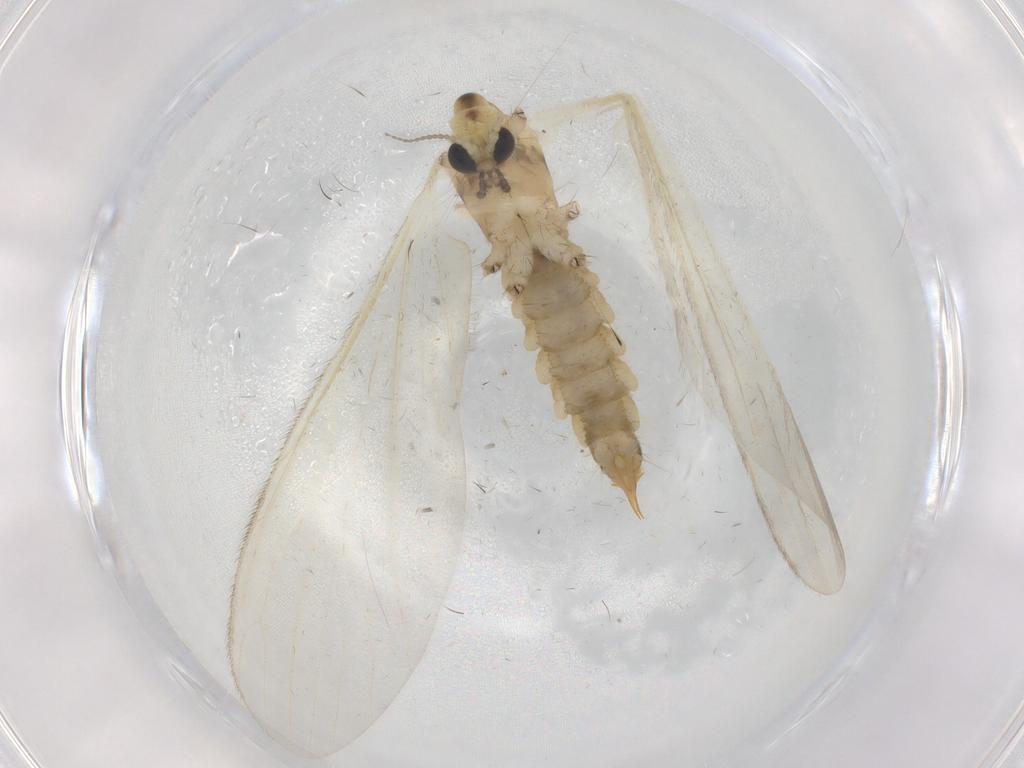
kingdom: Animalia
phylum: Arthropoda
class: Insecta
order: Diptera
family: Limoniidae
